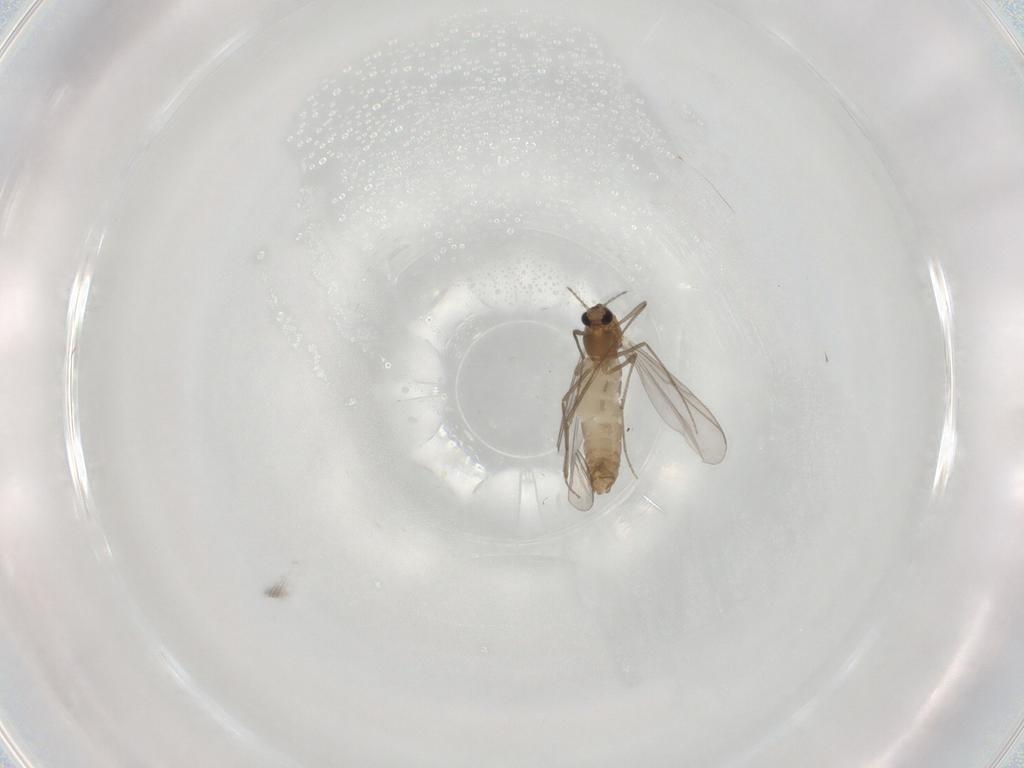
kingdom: Animalia
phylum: Arthropoda
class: Insecta
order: Diptera
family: Chironomidae
